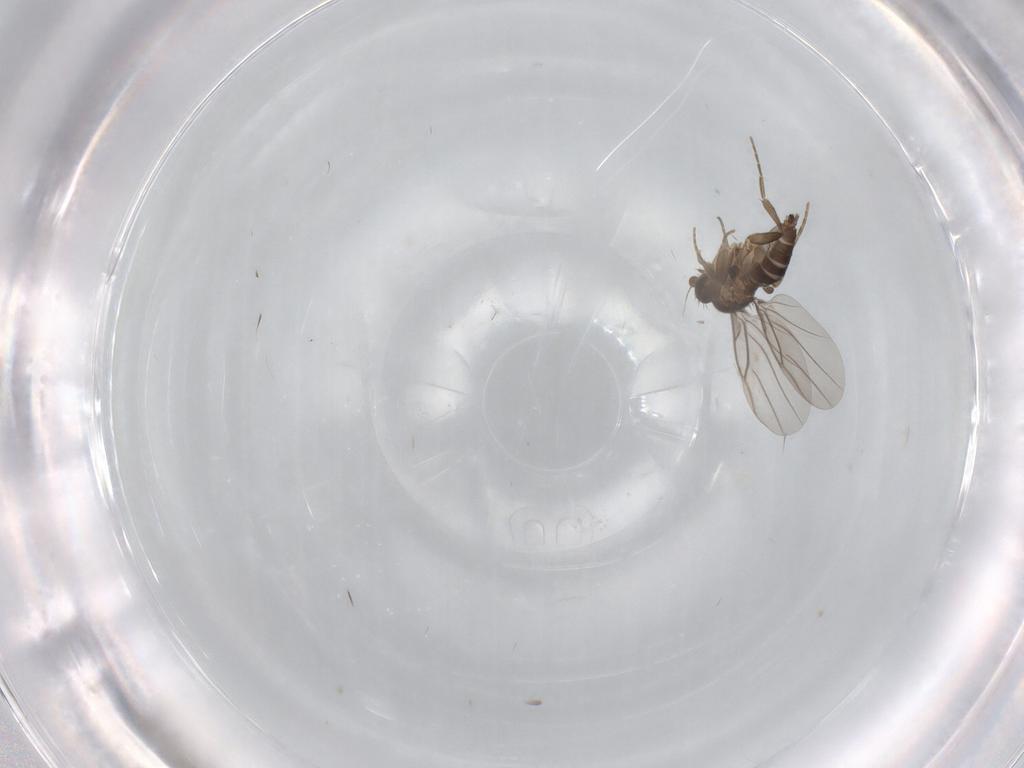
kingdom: Animalia
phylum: Arthropoda
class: Insecta
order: Diptera
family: Phoridae
